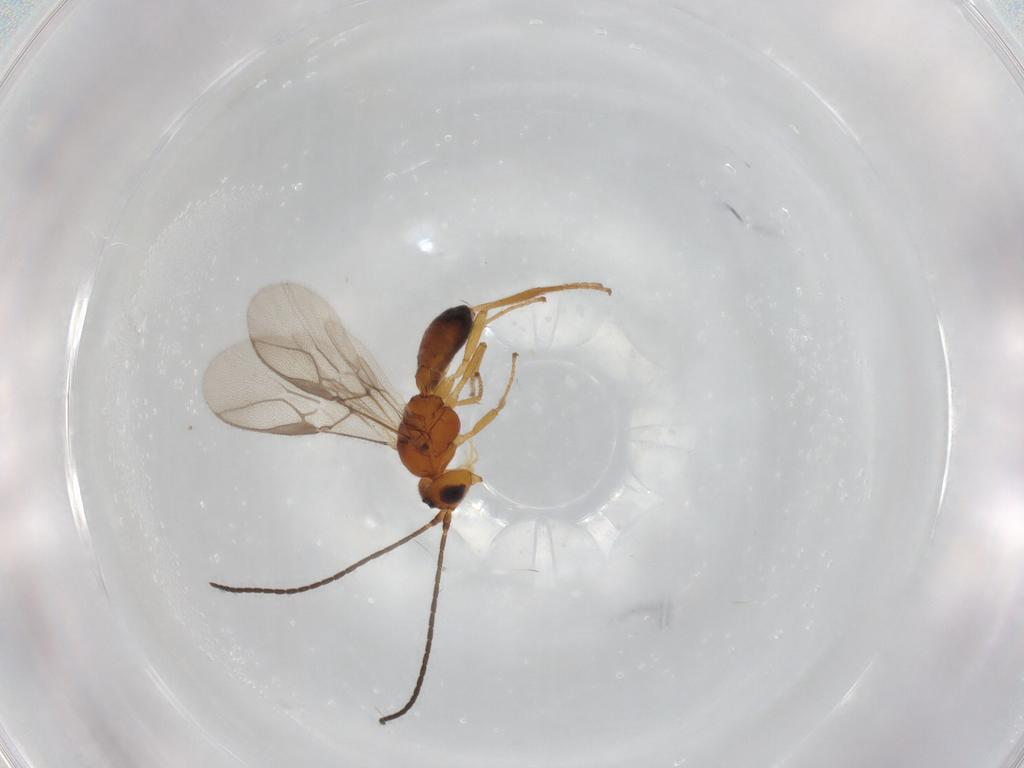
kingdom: Animalia
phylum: Arthropoda
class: Insecta
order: Hymenoptera
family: Braconidae
